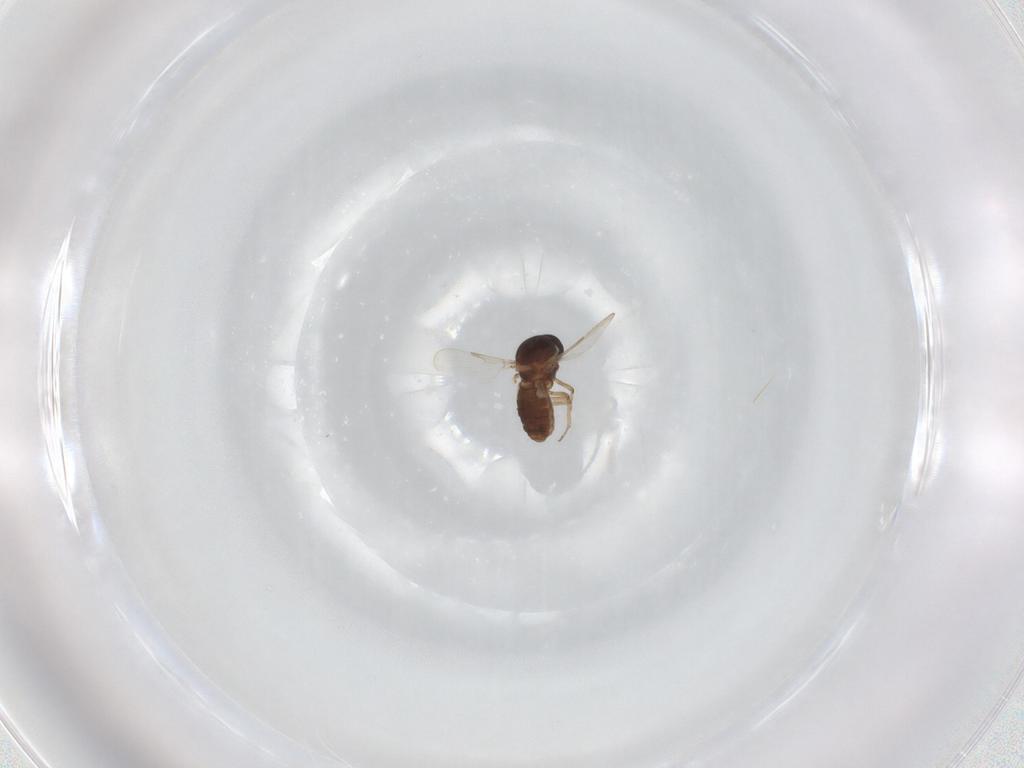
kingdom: Animalia
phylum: Arthropoda
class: Insecta
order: Diptera
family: Ceratopogonidae
